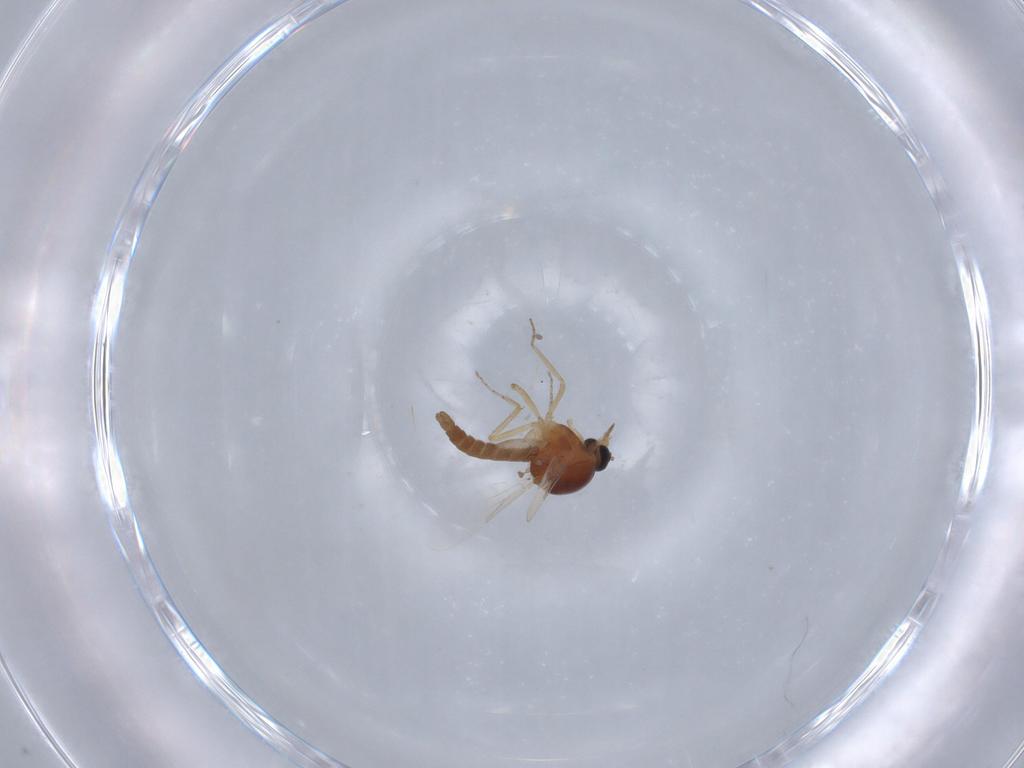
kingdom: Animalia
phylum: Arthropoda
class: Insecta
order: Diptera
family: Ceratopogonidae
